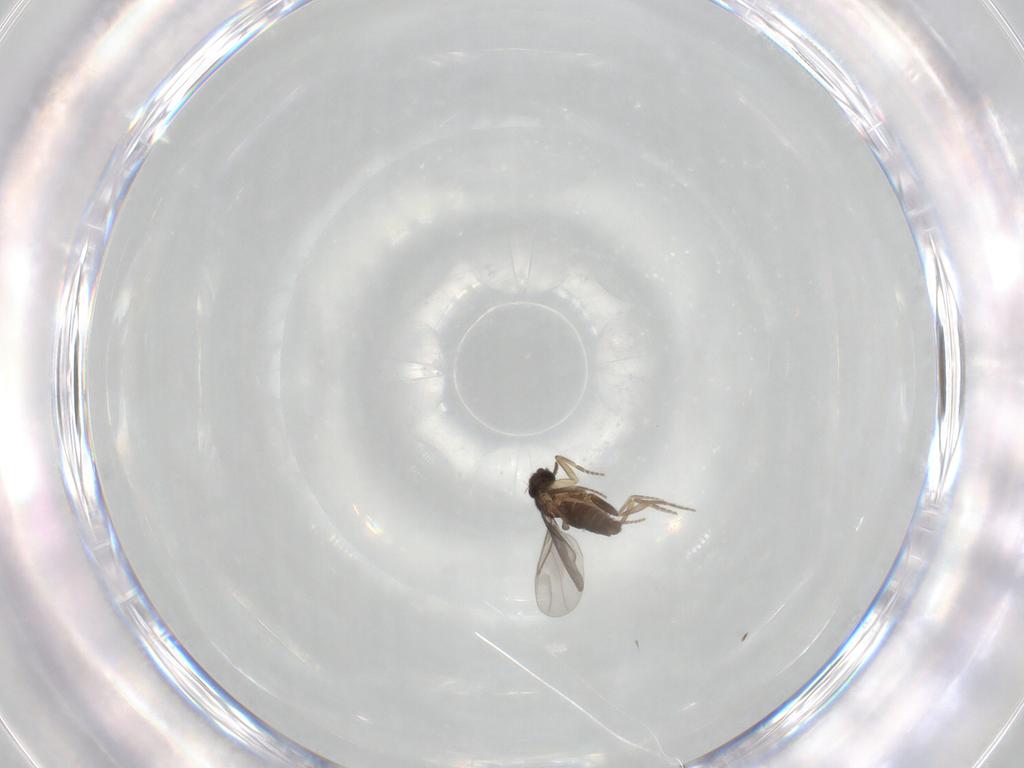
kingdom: Animalia
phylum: Arthropoda
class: Insecta
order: Diptera
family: Phoridae
